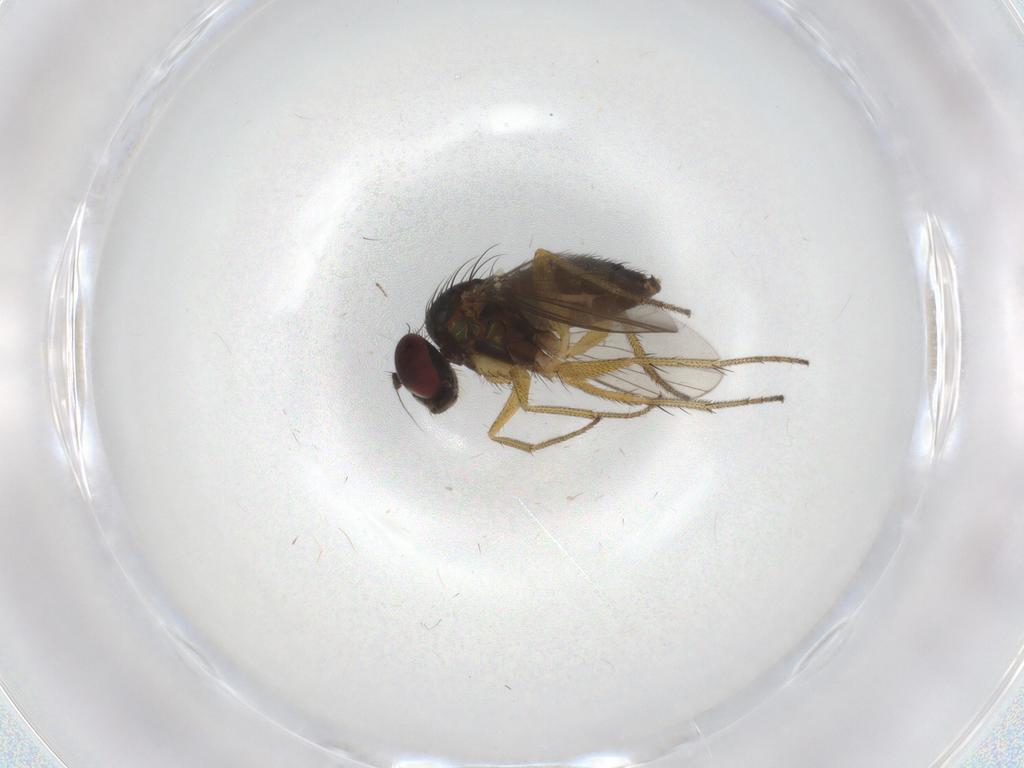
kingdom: Animalia
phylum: Arthropoda
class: Insecta
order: Diptera
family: Dolichopodidae
